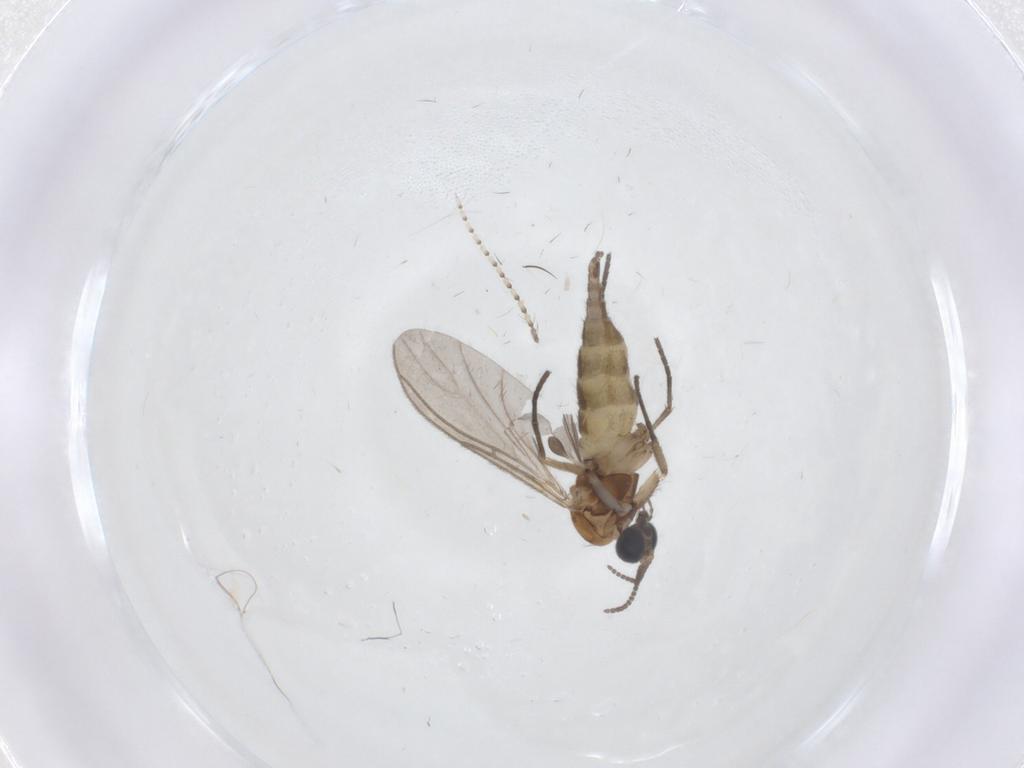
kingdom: Animalia
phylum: Arthropoda
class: Insecta
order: Diptera
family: Sciaridae
